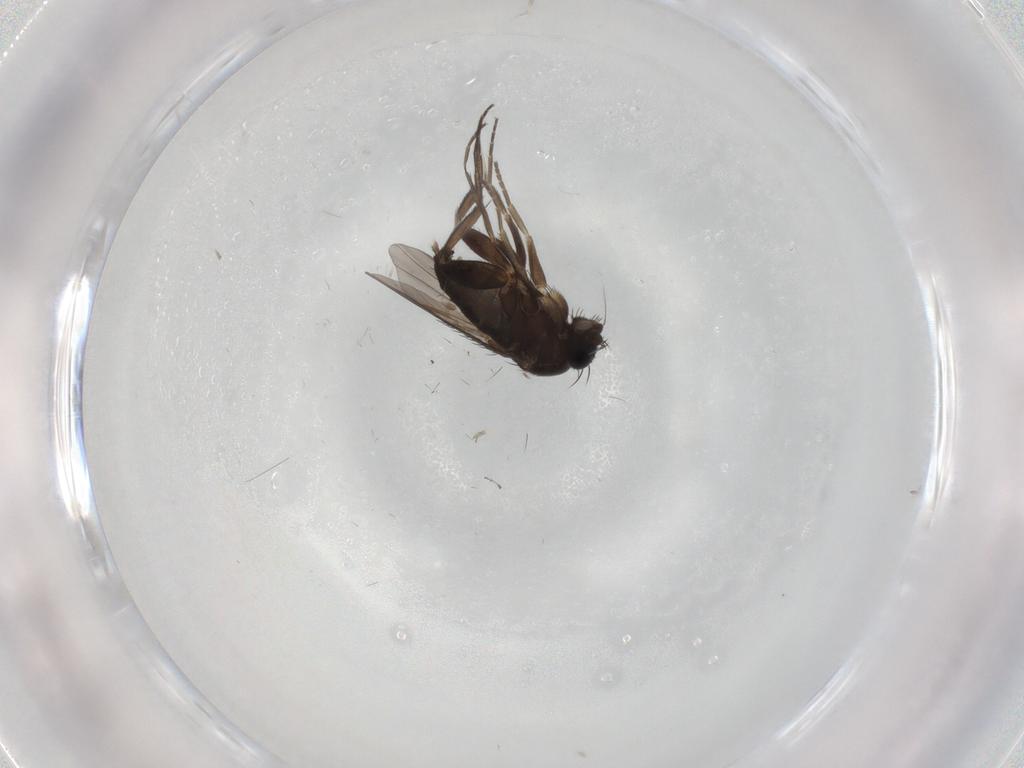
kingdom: Animalia
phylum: Arthropoda
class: Insecta
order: Diptera
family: Phoridae
